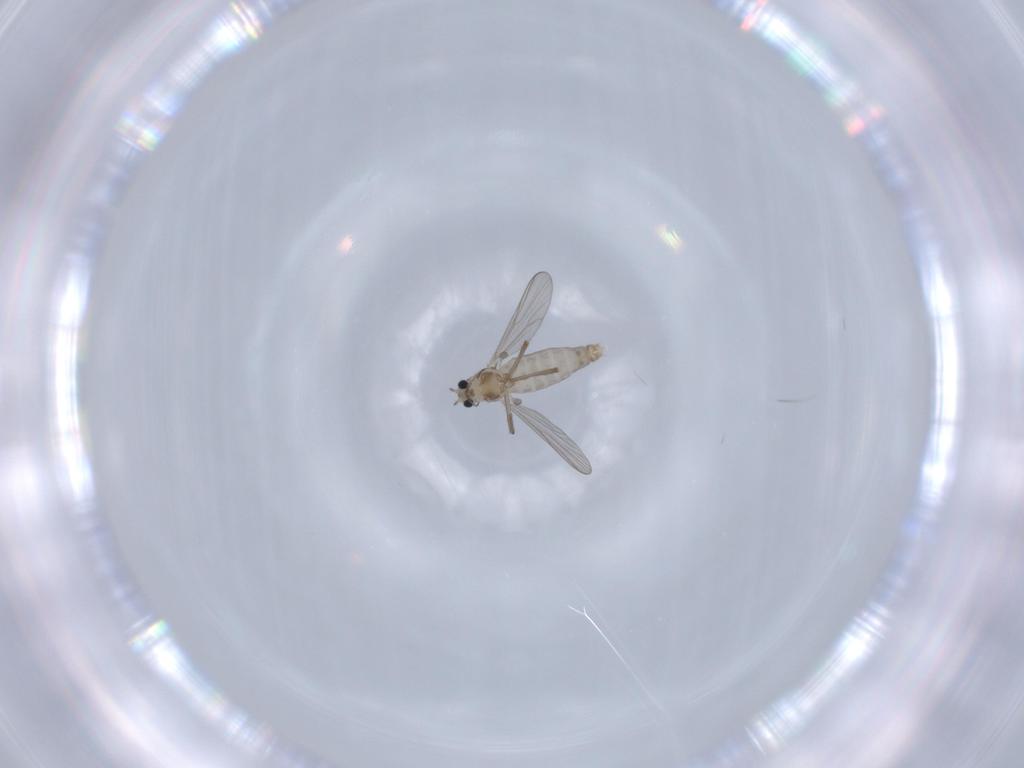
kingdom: Animalia
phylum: Arthropoda
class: Insecta
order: Diptera
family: Chironomidae
